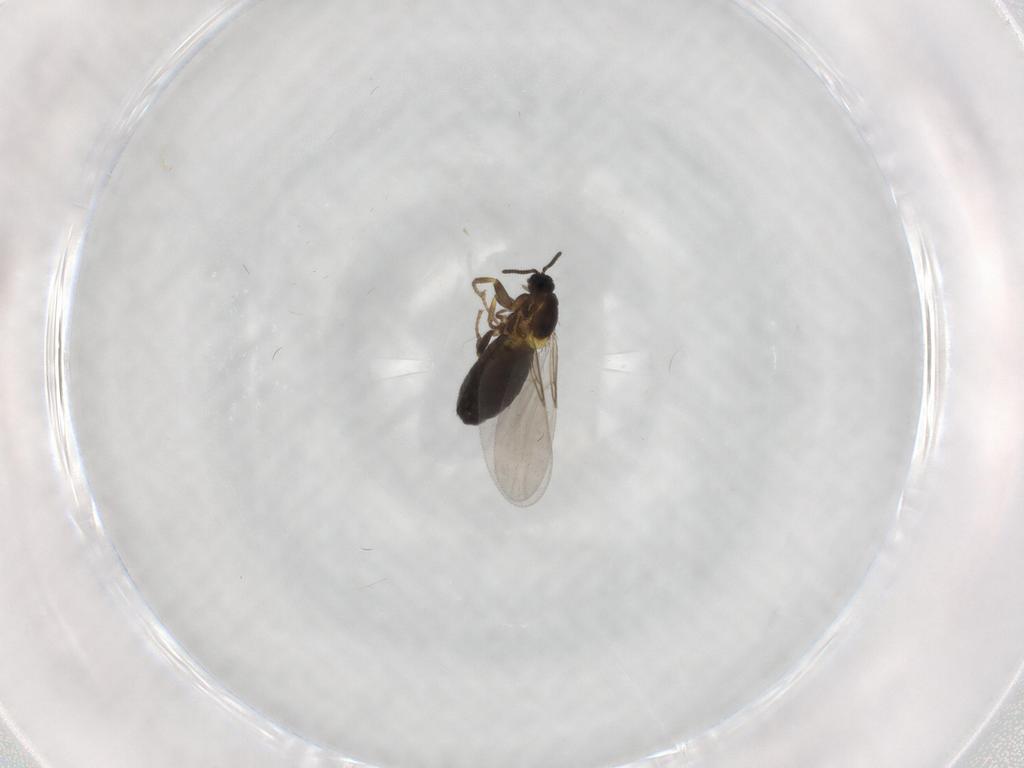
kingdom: Animalia
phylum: Arthropoda
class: Insecta
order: Diptera
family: Scatopsidae
